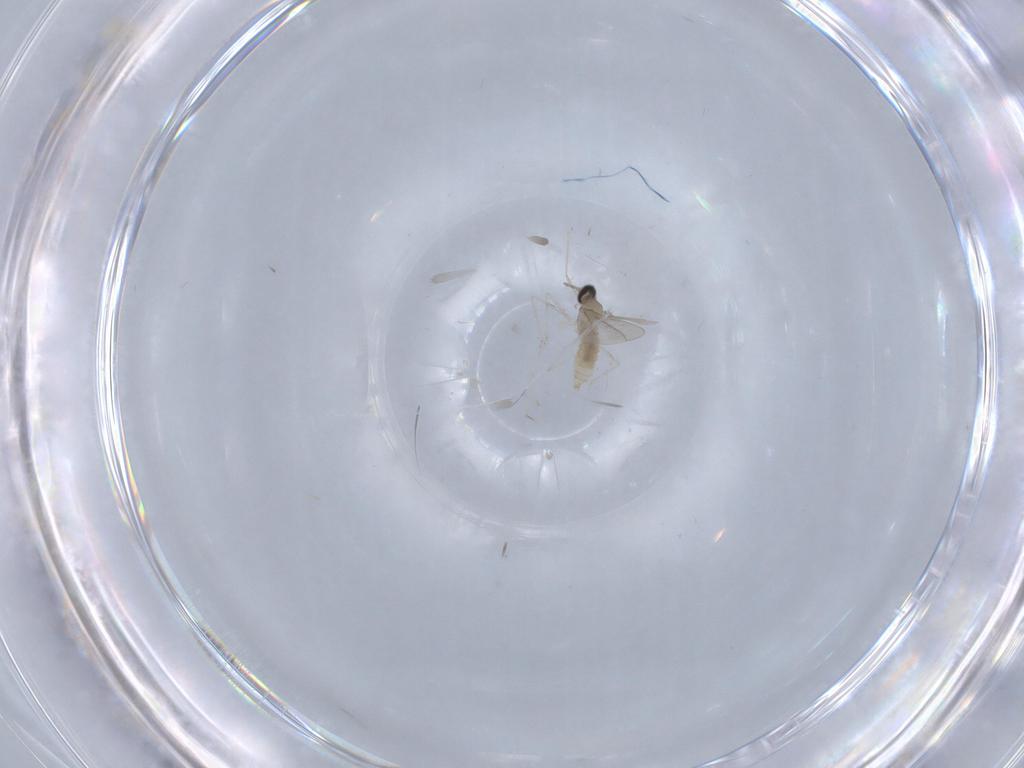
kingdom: Animalia
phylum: Arthropoda
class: Insecta
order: Diptera
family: Cecidomyiidae
